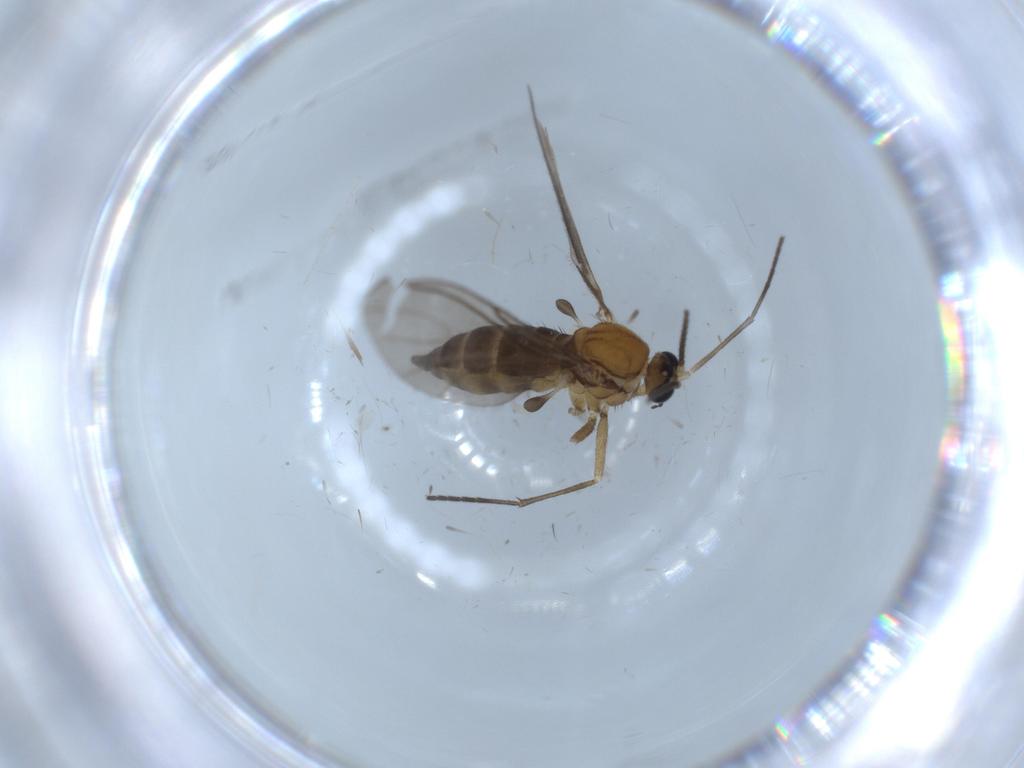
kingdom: Animalia
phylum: Arthropoda
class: Insecta
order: Diptera
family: Sciaridae
